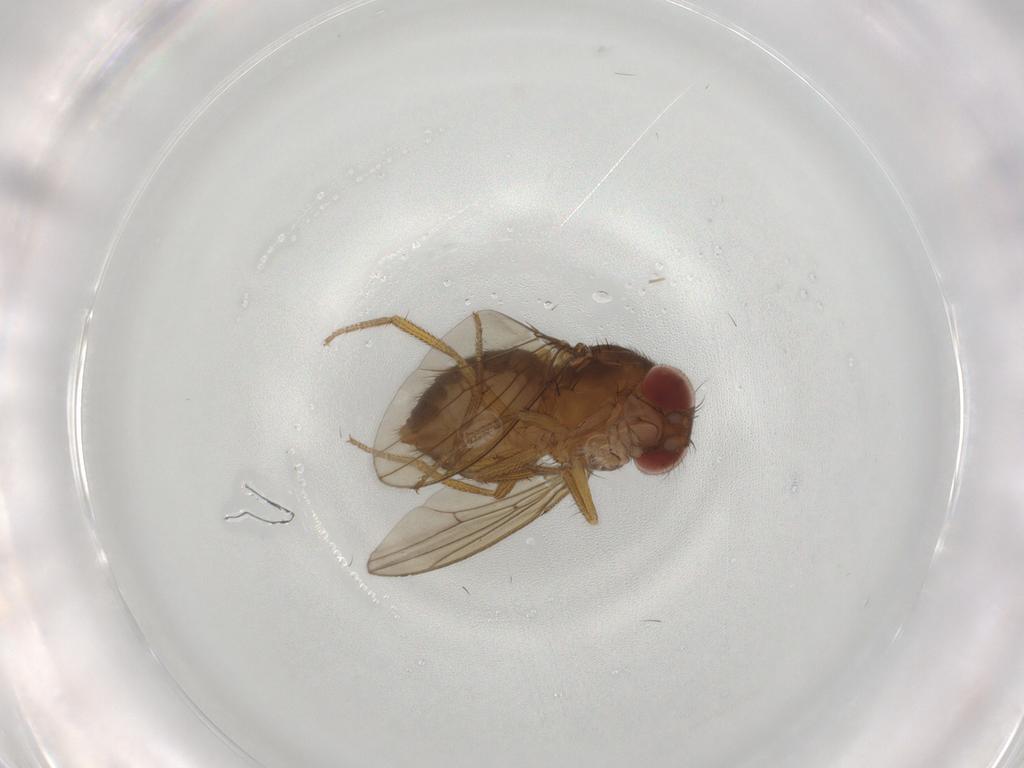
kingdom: Animalia
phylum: Arthropoda
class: Insecta
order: Diptera
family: Drosophilidae
